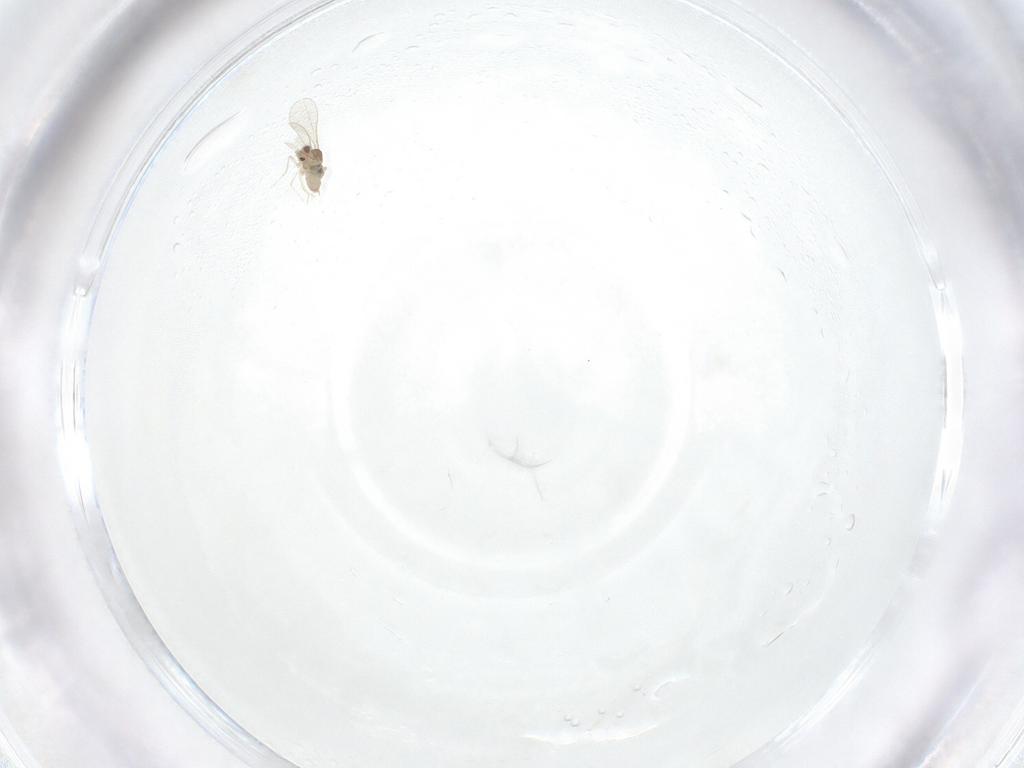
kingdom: Animalia
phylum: Arthropoda
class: Insecta
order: Diptera
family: Cecidomyiidae
